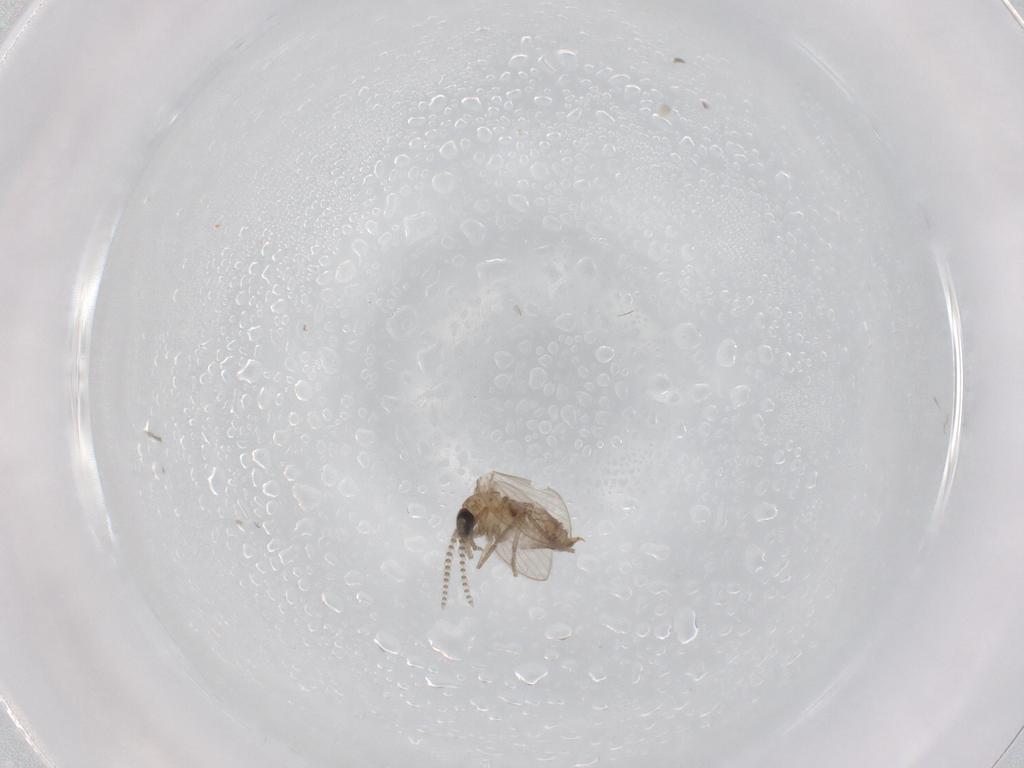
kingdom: Animalia
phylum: Arthropoda
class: Insecta
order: Diptera
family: Psychodidae
